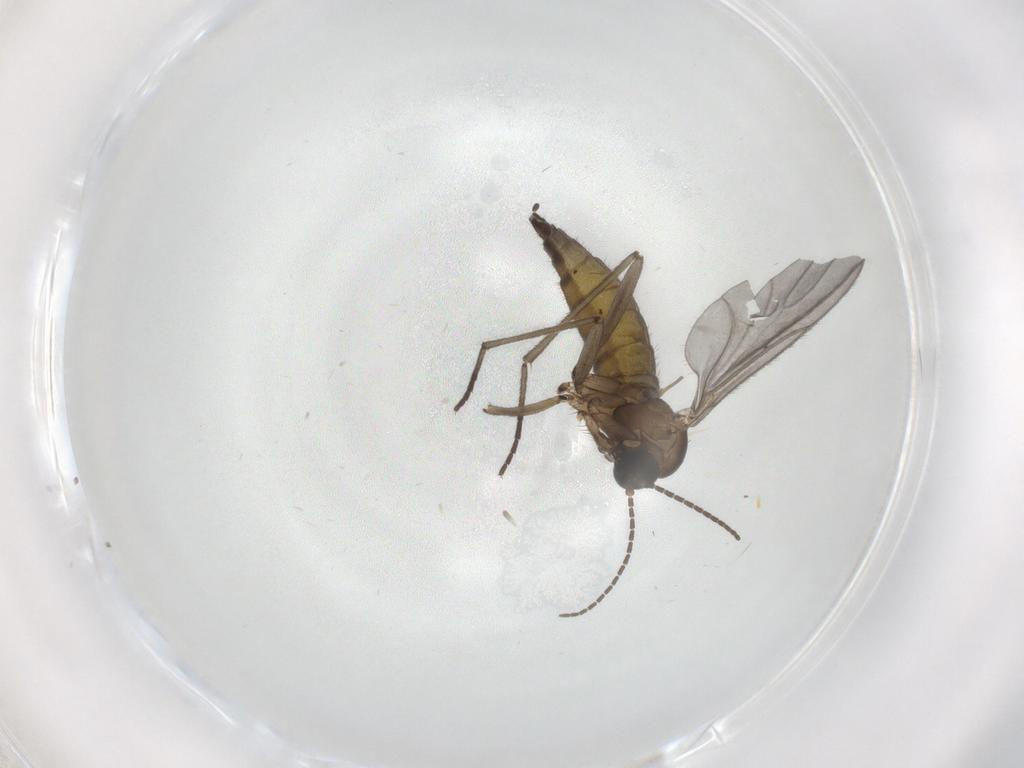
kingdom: Animalia
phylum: Arthropoda
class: Insecta
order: Diptera
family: Sciaridae
